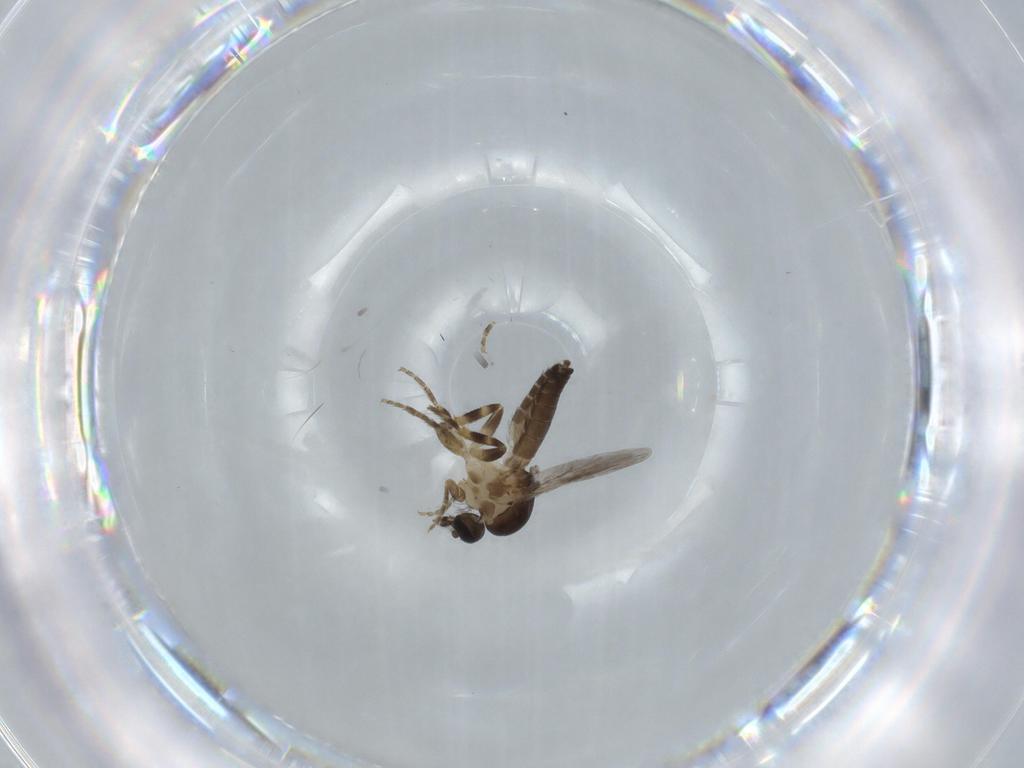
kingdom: Animalia
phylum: Arthropoda
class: Insecta
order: Diptera
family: Ceratopogonidae
